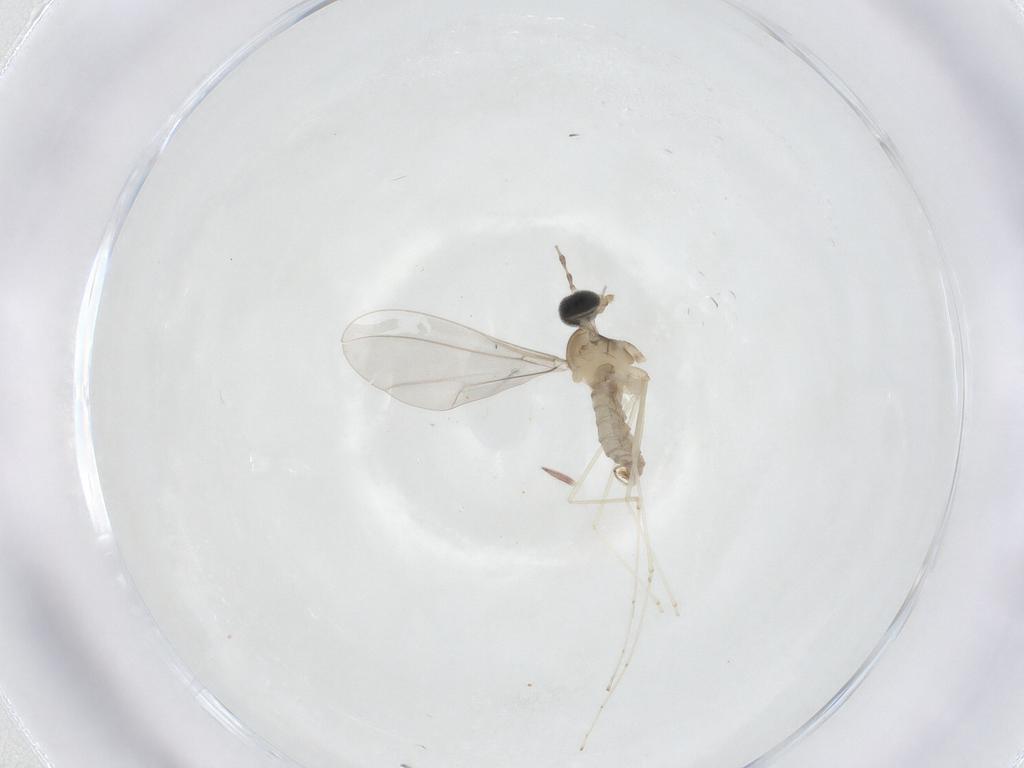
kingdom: Animalia
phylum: Arthropoda
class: Insecta
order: Diptera
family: Cecidomyiidae
